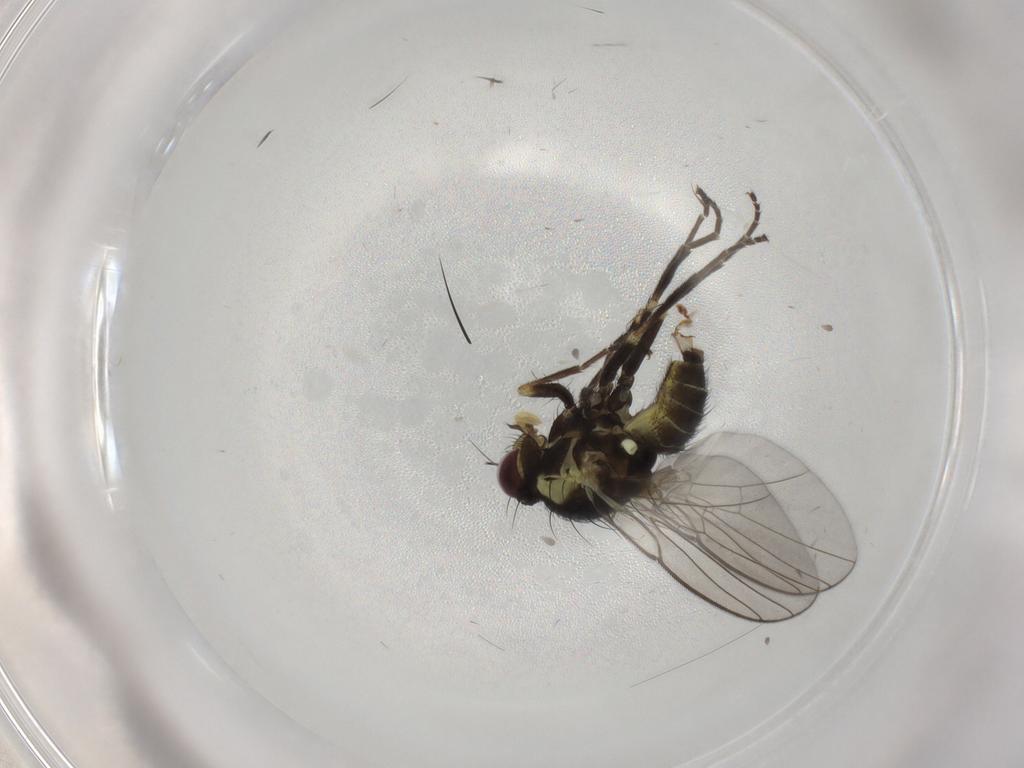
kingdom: Animalia
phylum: Arthropoda
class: Insecta
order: Diptera
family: Agromyzidae
